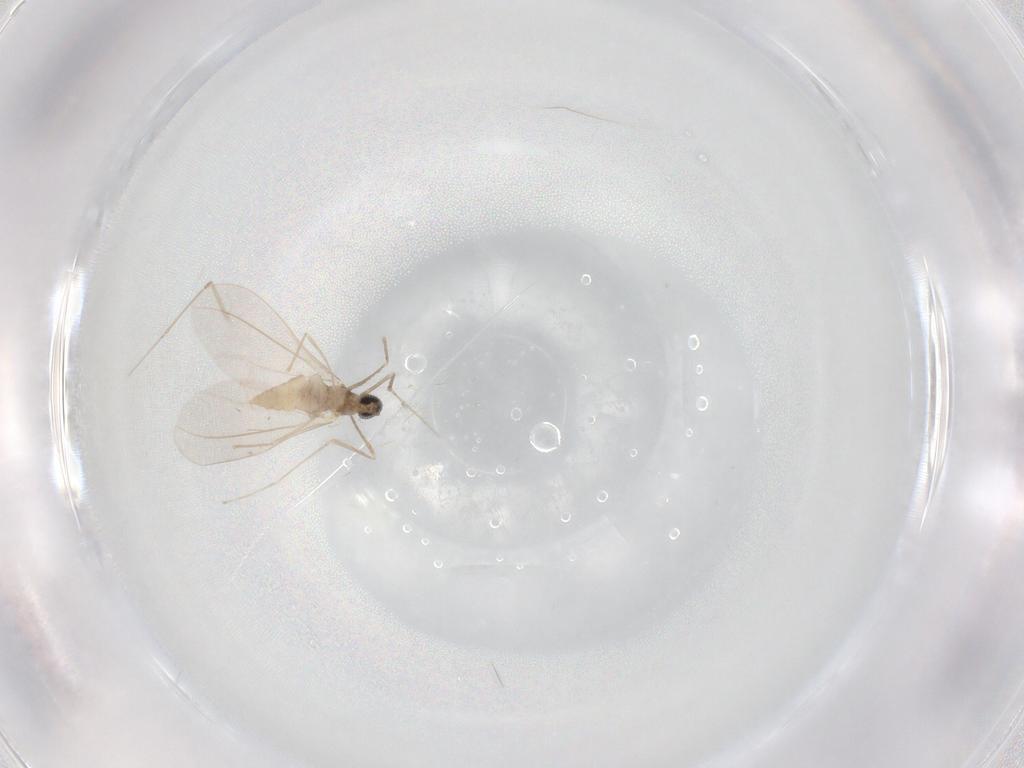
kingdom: Animalia
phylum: Arthropoda
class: Insecta
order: Diptera
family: Cecidomyiidae
